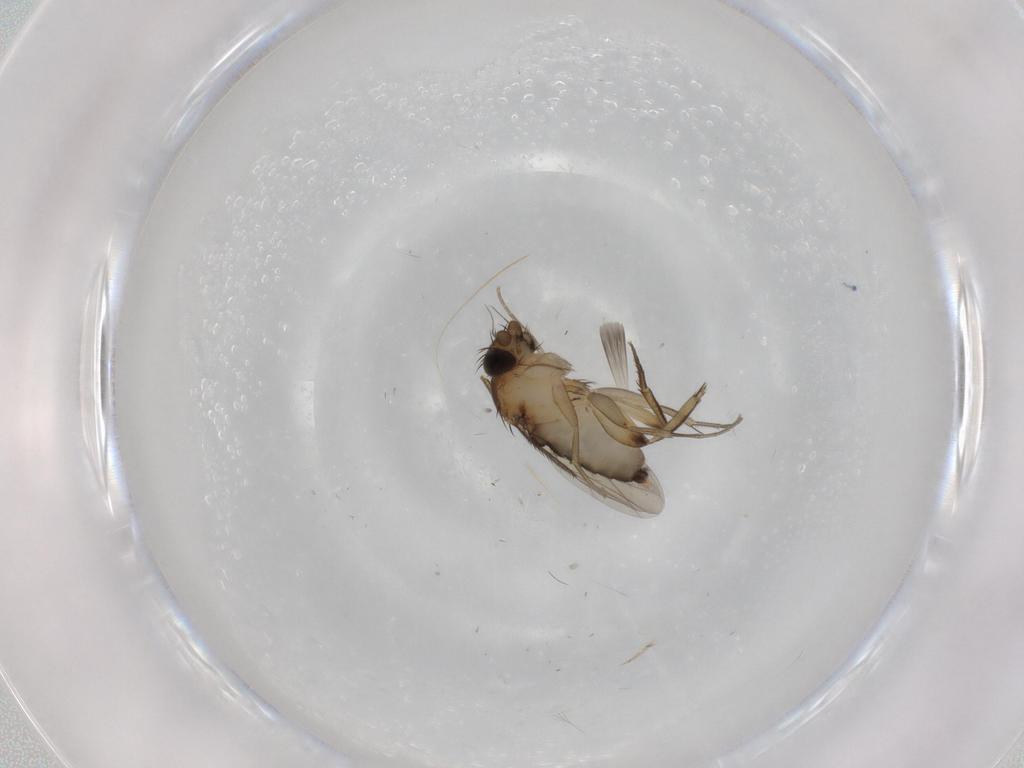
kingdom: Animalia
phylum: Arthropoda
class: Insecta
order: Diptera
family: Phoridae
